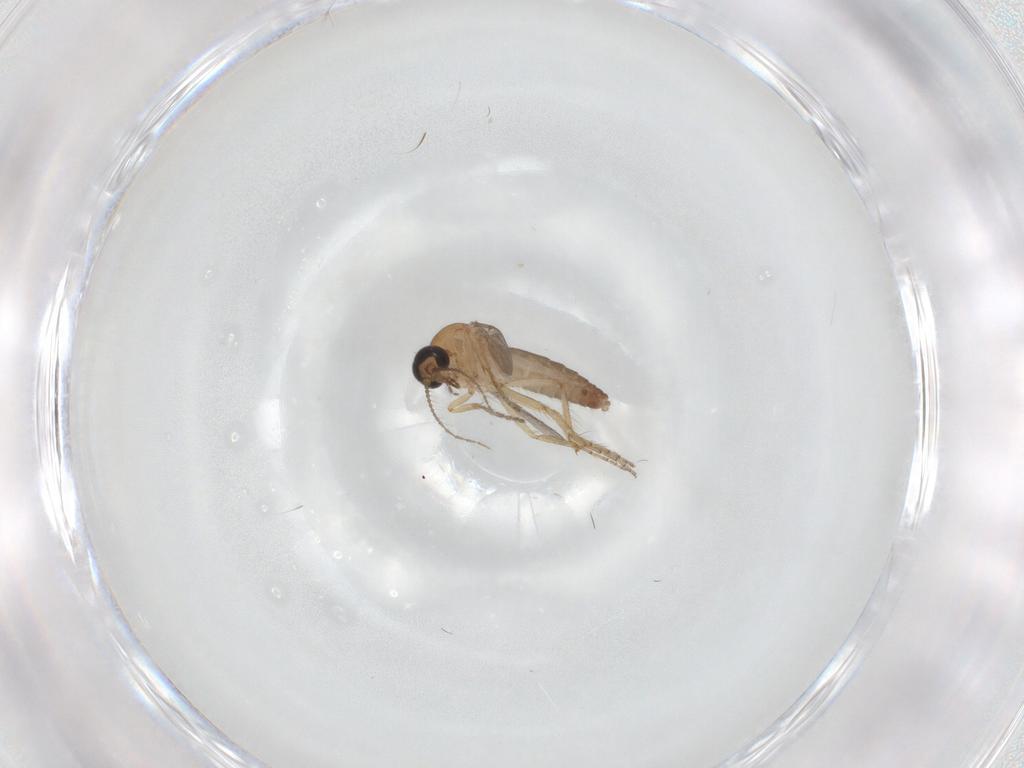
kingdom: Animalia
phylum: Arthropoda
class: Insecta
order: Diptera
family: Ceratopogonidae
